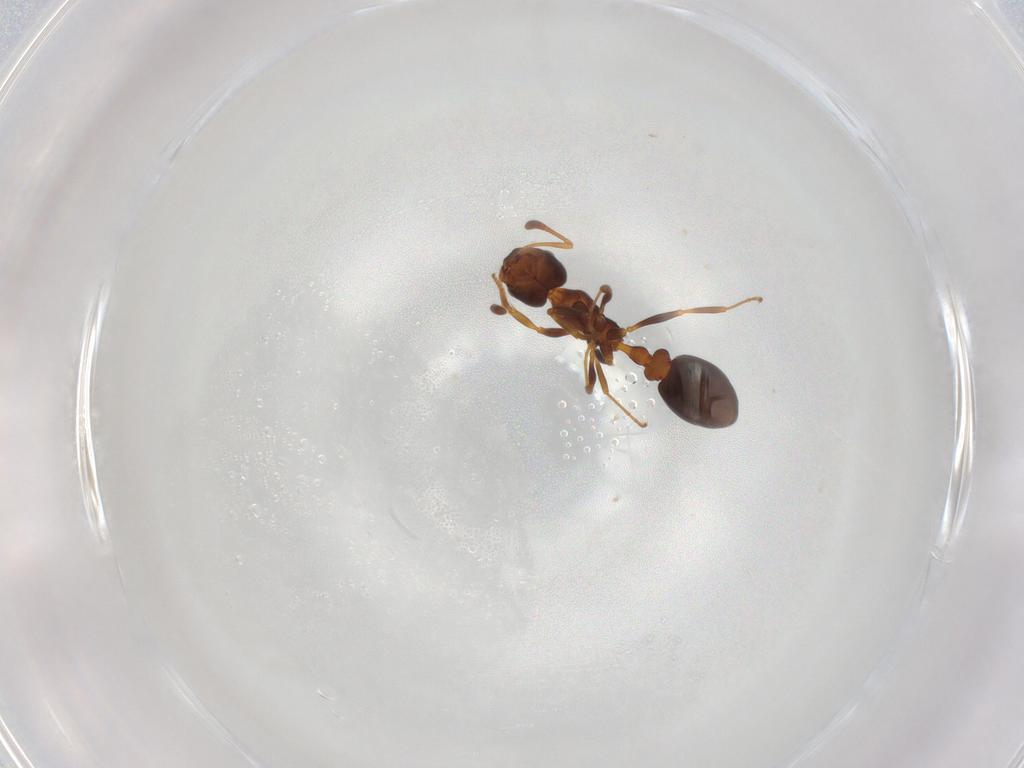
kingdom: Animalia
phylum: Arthropoda
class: Insecta
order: Hymenoptera
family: Formicidae
